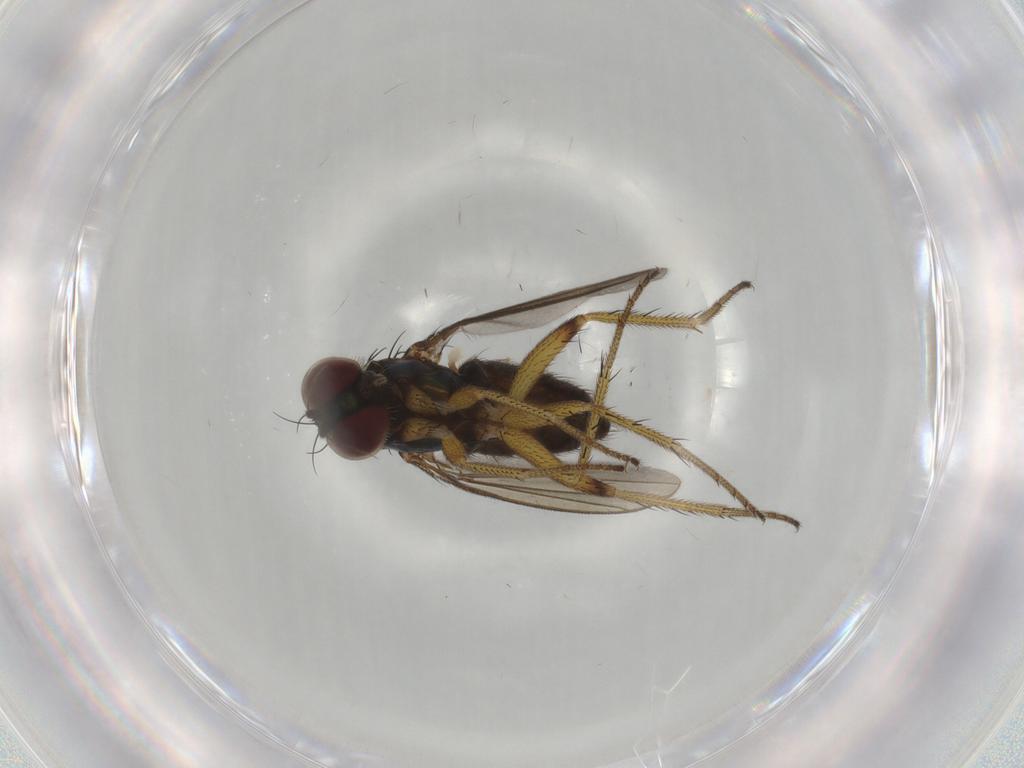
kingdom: Animalia
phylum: Arthropoda
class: Insecta
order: Diptera
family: Dolichopodidae
